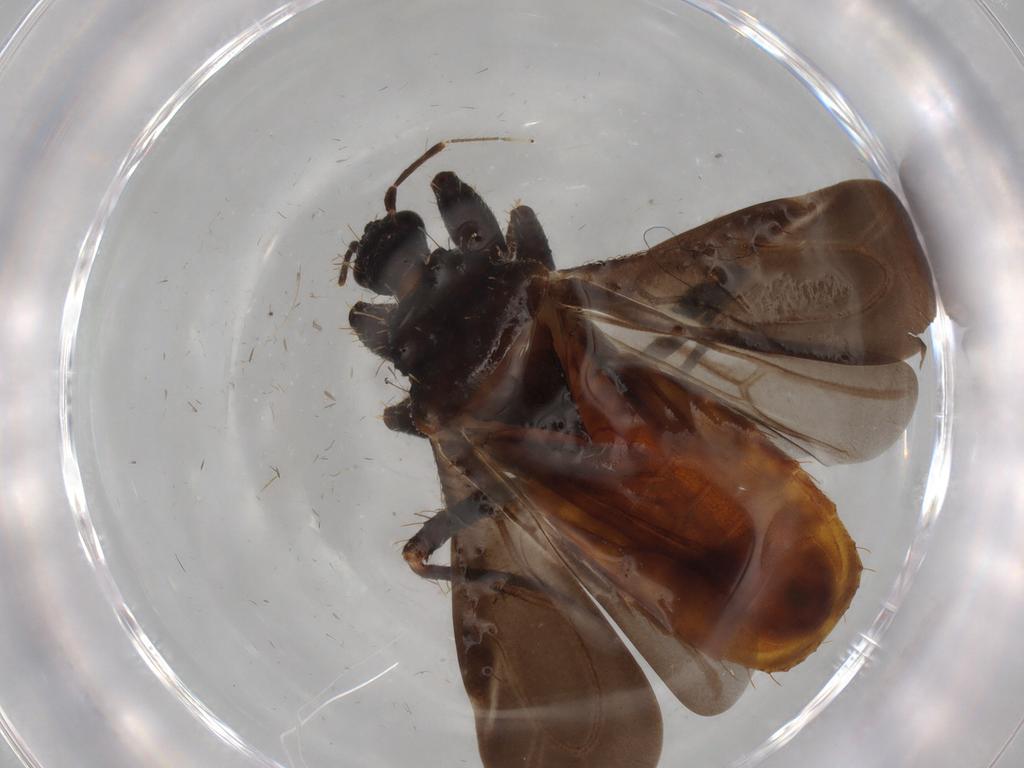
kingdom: Animalia
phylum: Arthropoda
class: Insecta
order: Hemiptera
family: Cicadellidae
